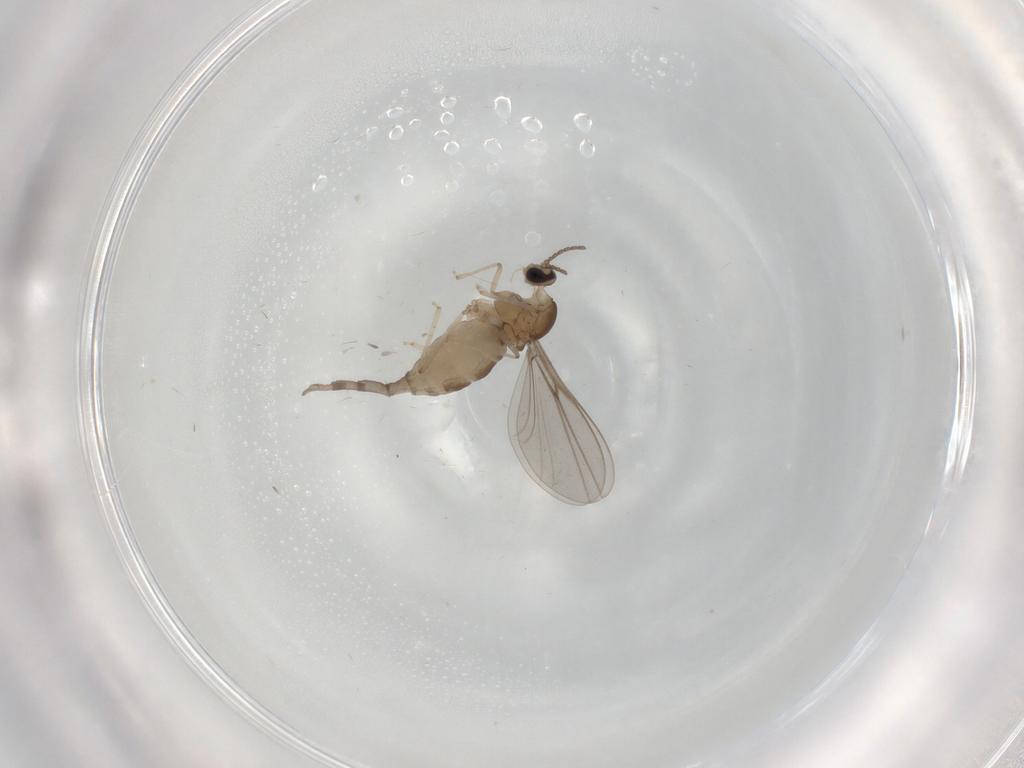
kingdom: Animalia
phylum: Arthropoda
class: Insecta
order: Diptera
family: Cecidomyiidae
